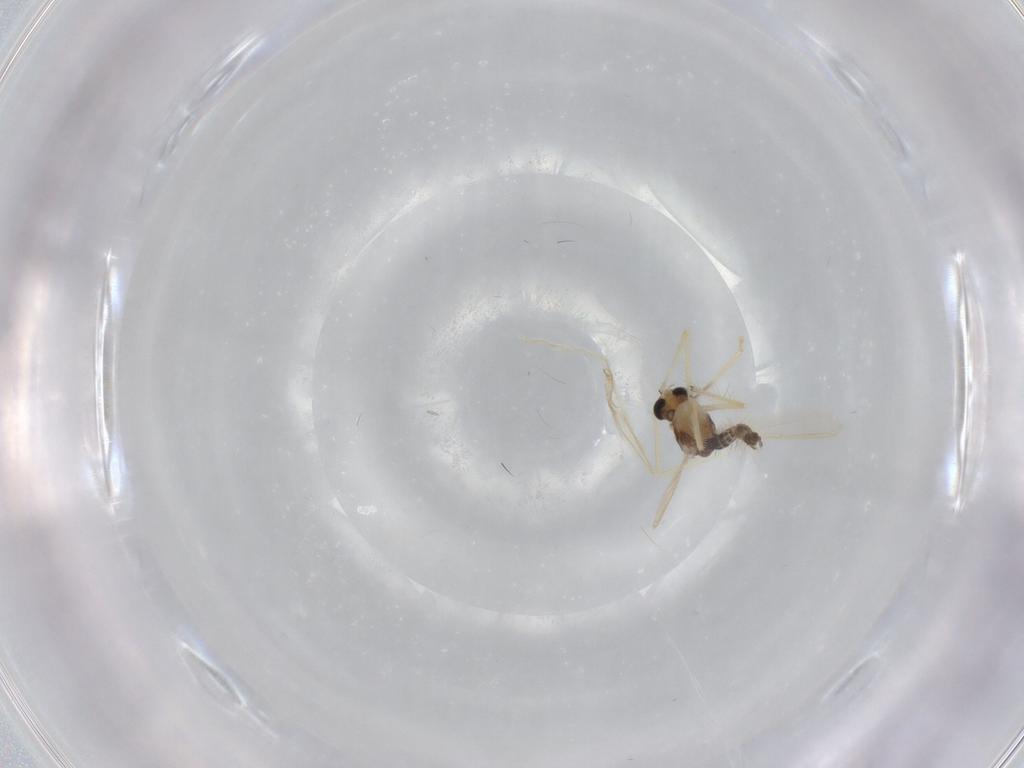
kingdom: Animalia
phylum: Arthropoda
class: Insecta
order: Diptera
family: Chironomidae
